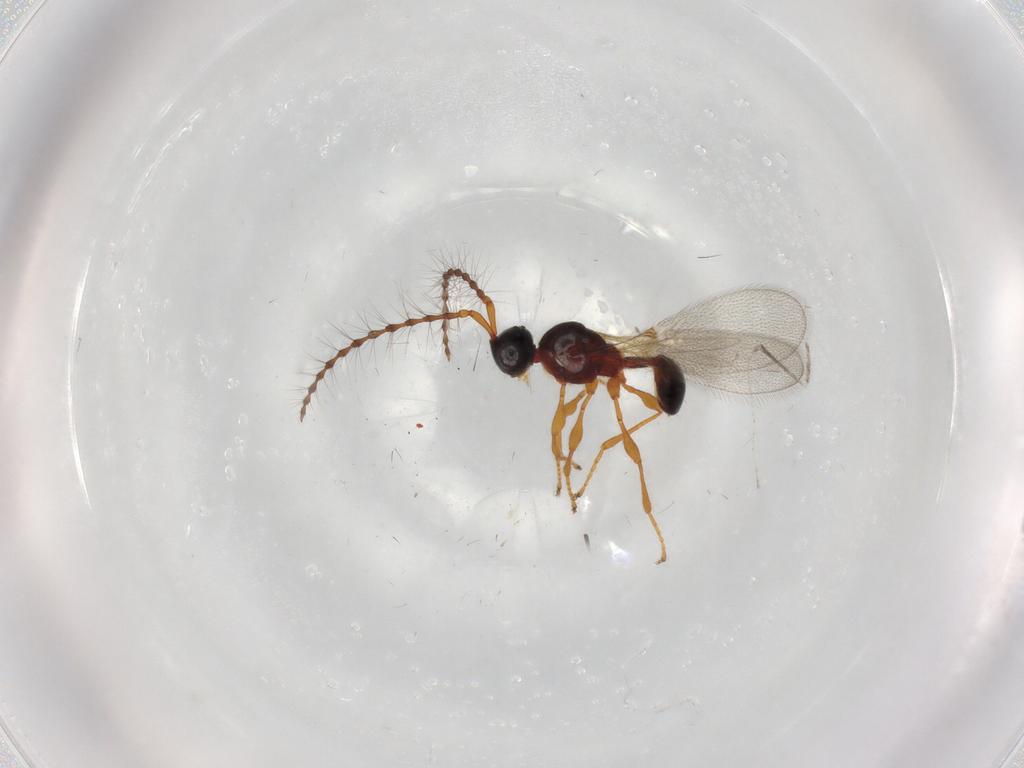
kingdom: Animalia
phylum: Arthropoda
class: Insecta
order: Hymenoptera
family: Diapriidae
